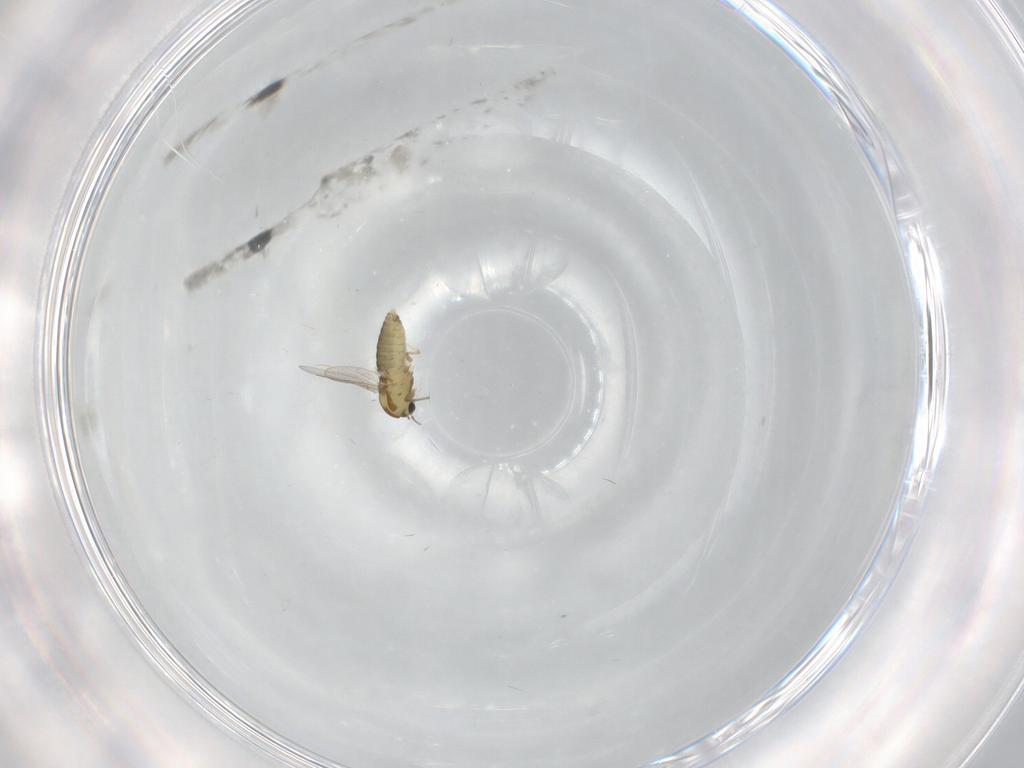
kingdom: Animalia
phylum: Arthropoda
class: Insecta
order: Diptera
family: Chironomidae
